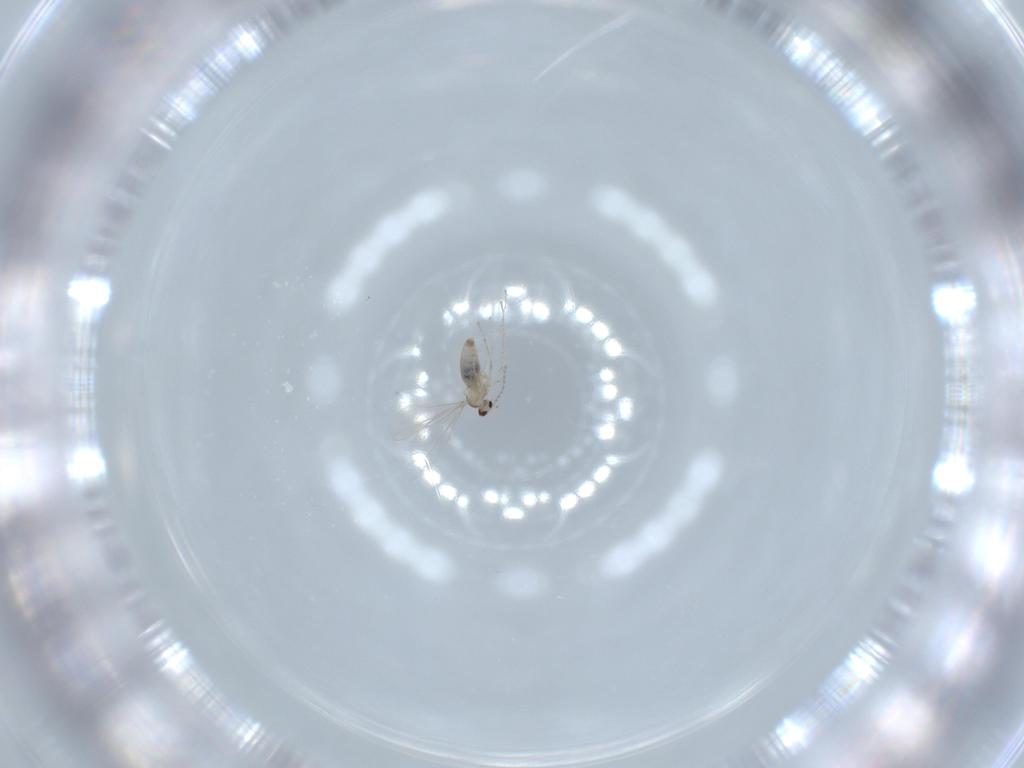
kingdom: Animalia
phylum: Arthropoda
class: Insecta
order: Diptera
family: Cecidomyiidae
